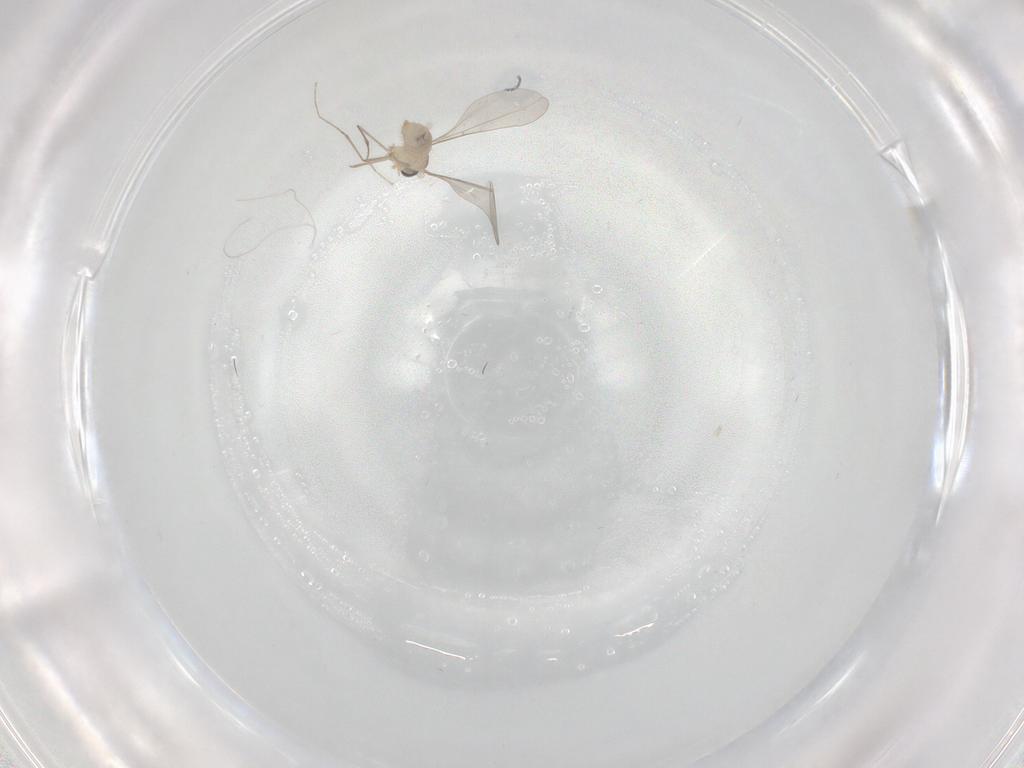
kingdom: Animalia
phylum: Arthropoda
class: Insecta
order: Diptera
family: Cecidomyiidae
